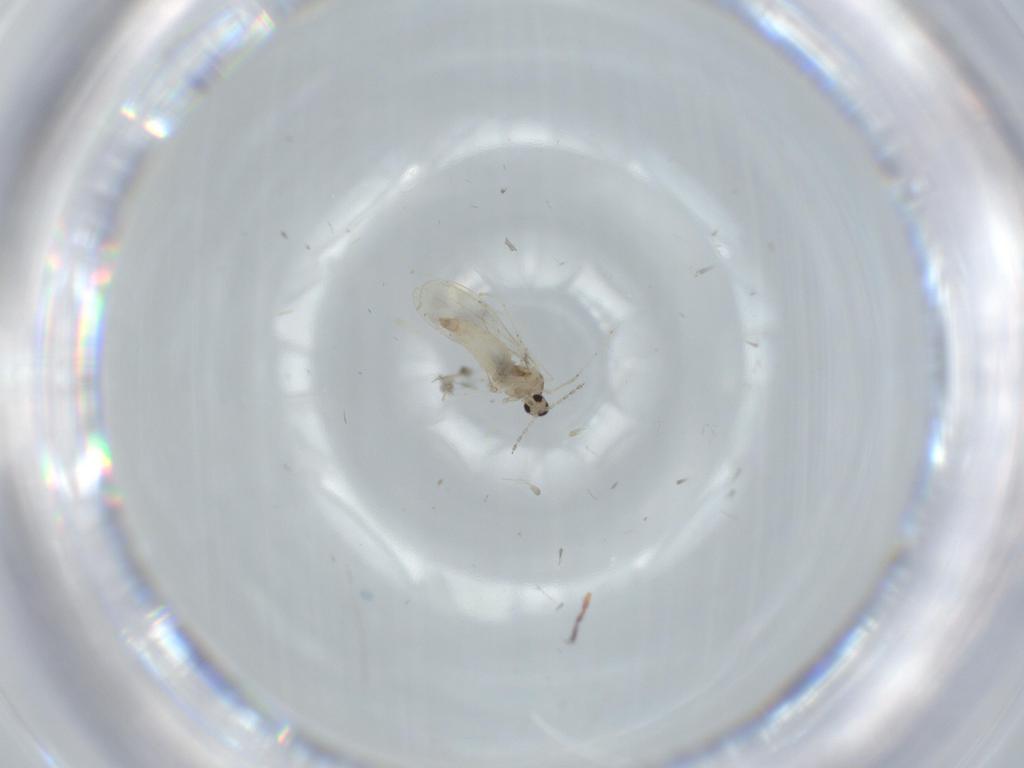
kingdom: Animalia
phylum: Arthropoda
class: Insecta
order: Diptera
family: Cecidomyiidae
